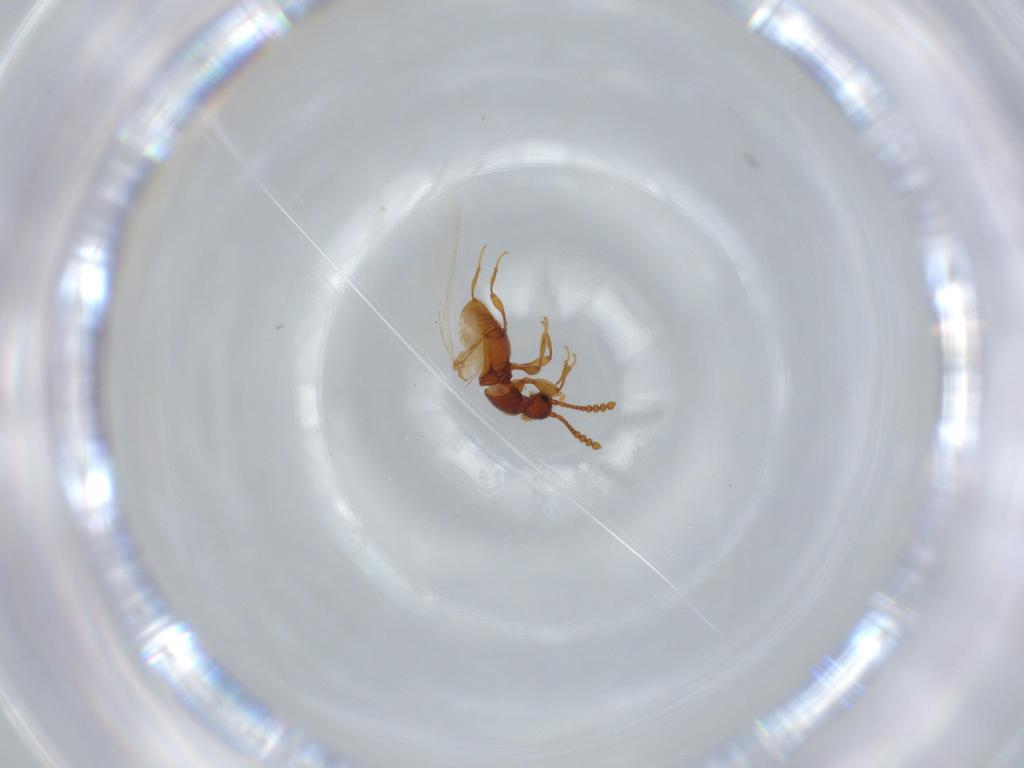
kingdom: Animalia
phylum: Arthropoda
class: Insecta
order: Coleoptera
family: Staphylinidae
